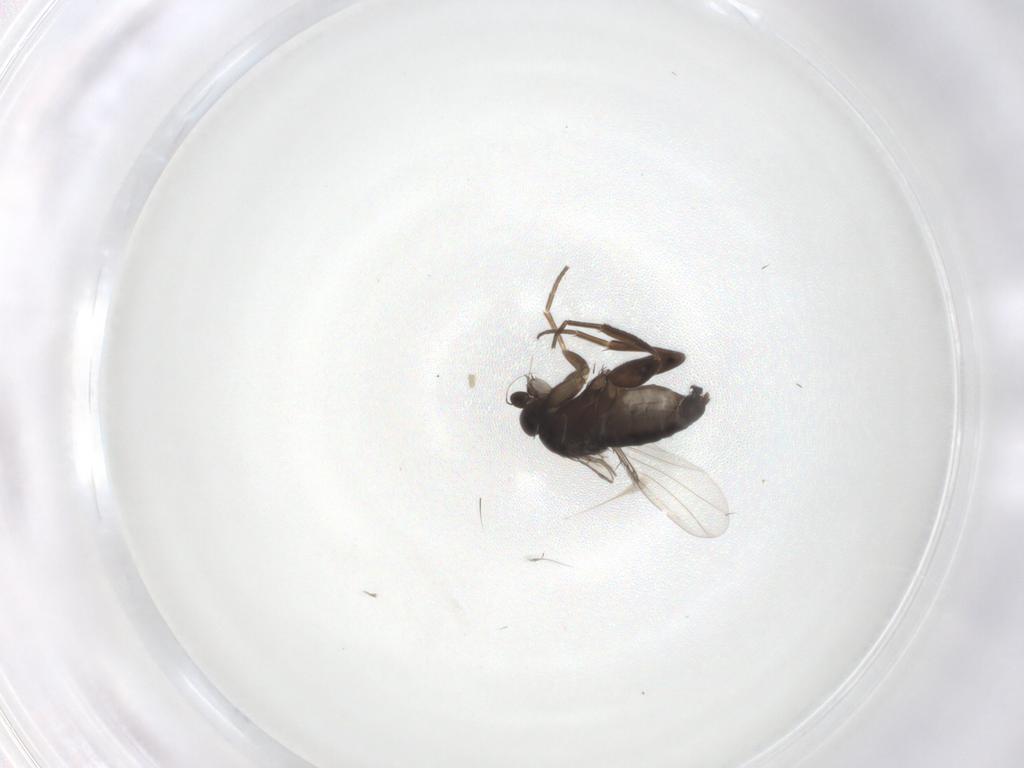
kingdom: Animalia
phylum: Arthropoda
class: Insecta
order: Diptera
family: Phoridae
